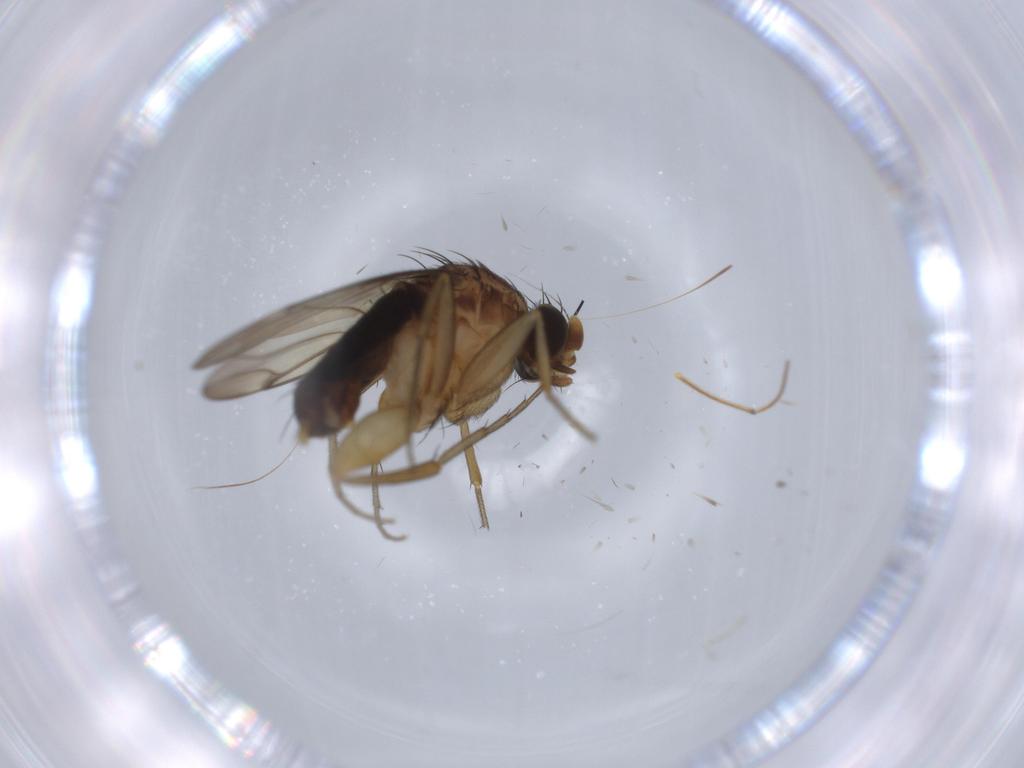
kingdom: Animalia
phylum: Arthropoda
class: Insecta
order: Diptera
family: Phoridae
